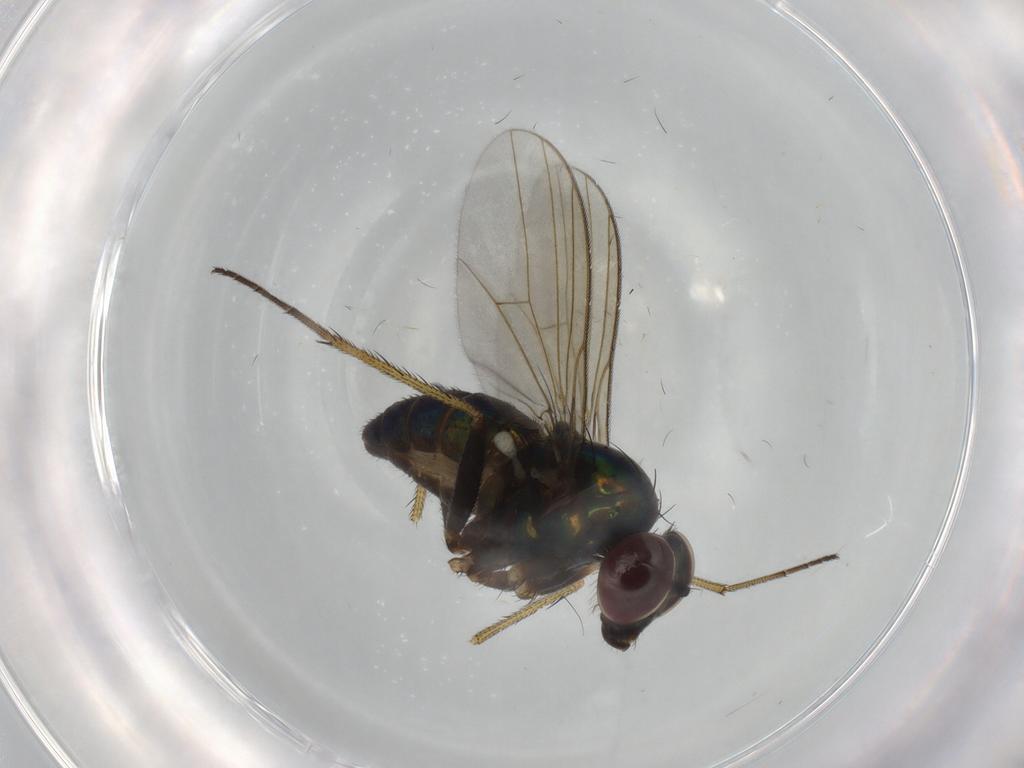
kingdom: Animalia
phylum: Arthropoda
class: Insecta
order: Diptera
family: Dolichopodidae
